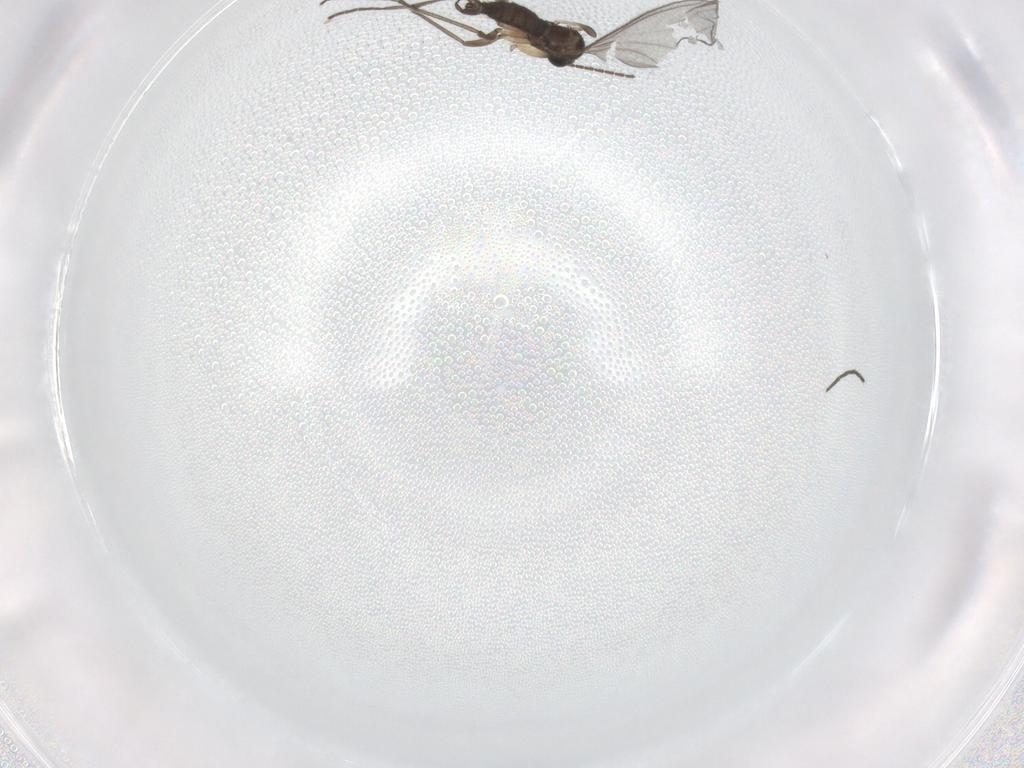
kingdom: Animalia
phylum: Arthropoda
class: Insecta
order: Diptera
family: Sciaridae
